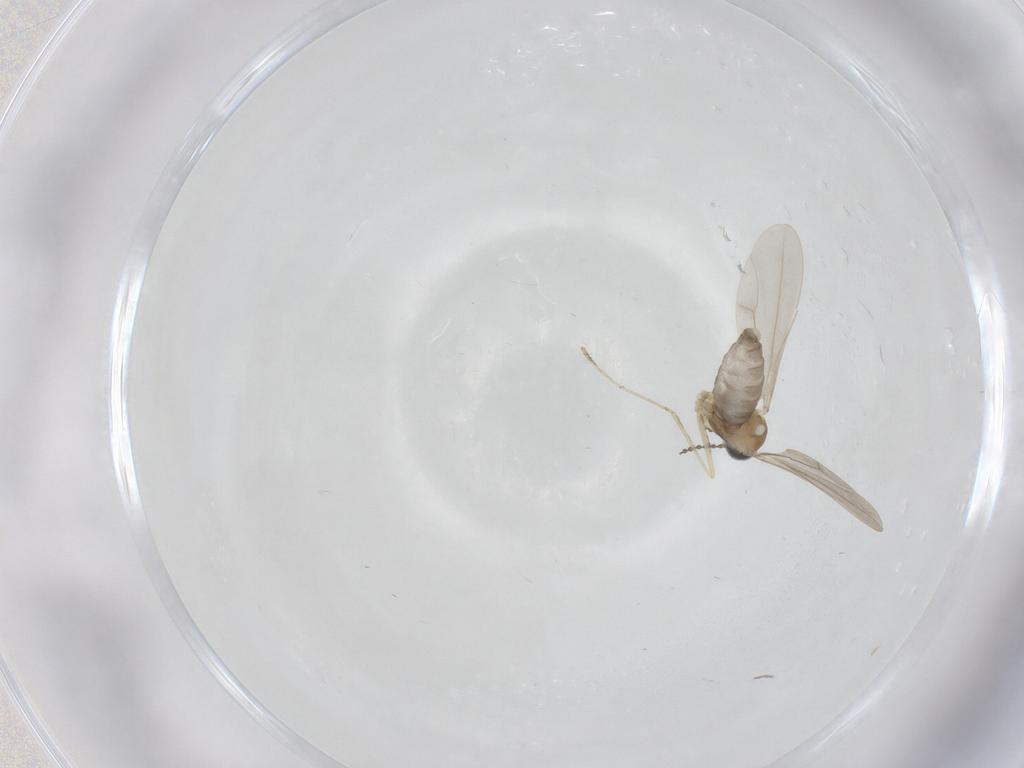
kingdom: Animalia
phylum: Arthropoda
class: Insecta
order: Diptera
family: Cecidomyiidae
